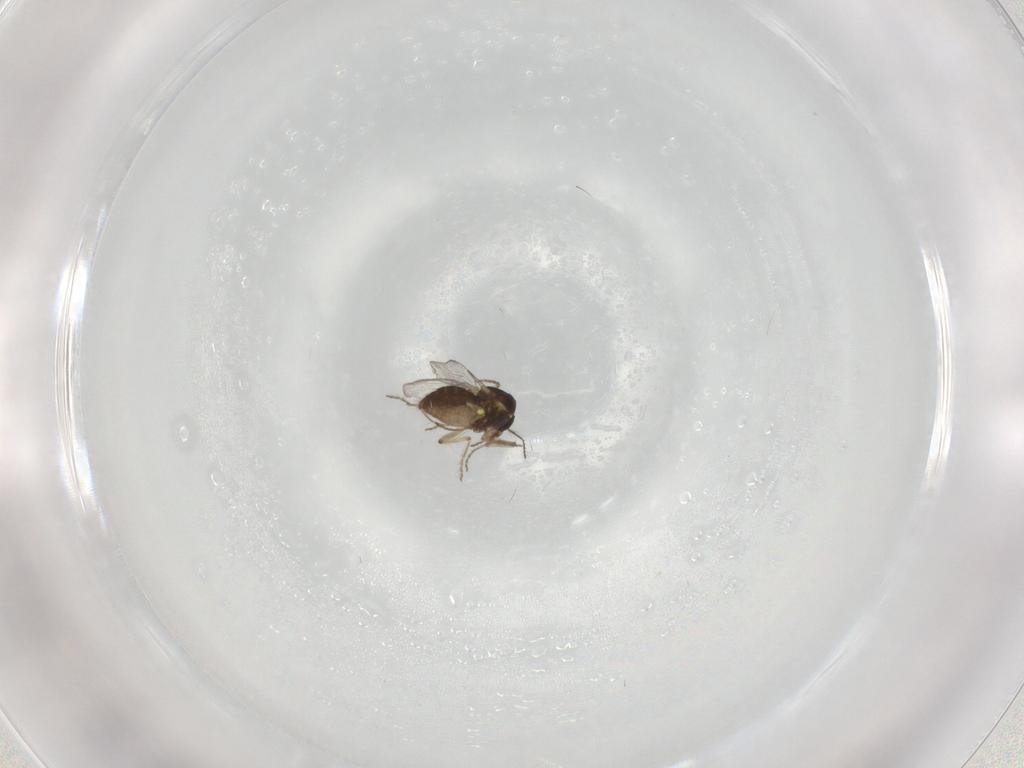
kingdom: Animalia
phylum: Arthropoda
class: Insecta
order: Diptera
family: Ceratopogonidae
